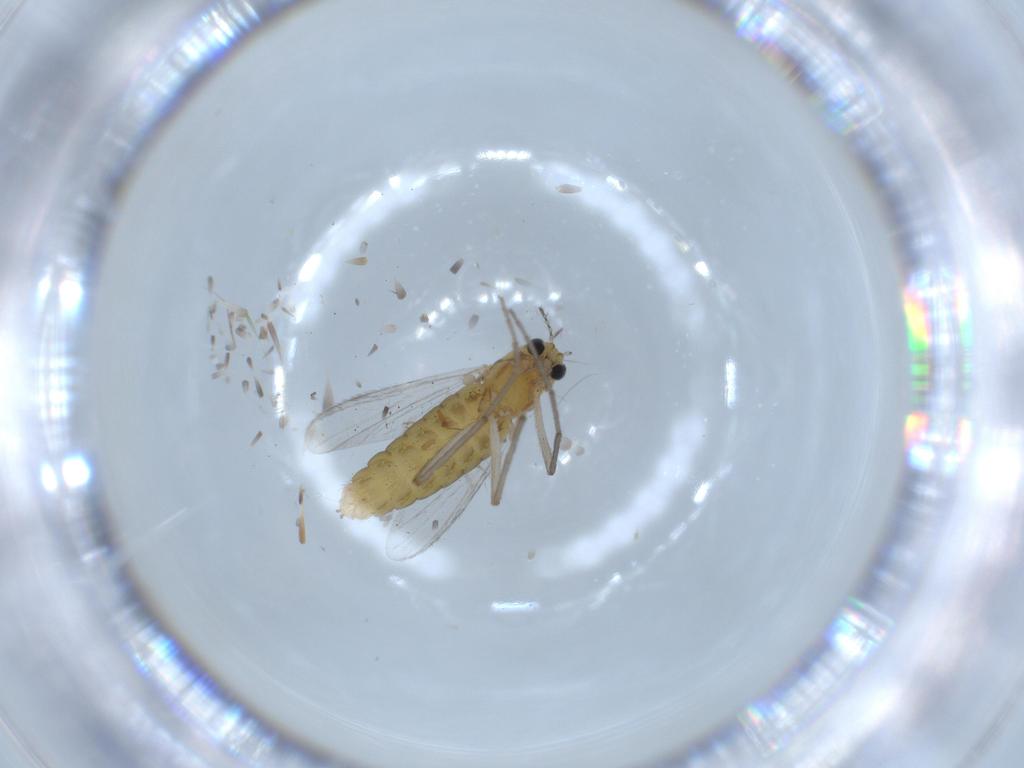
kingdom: Animalia
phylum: Arthropoda
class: Insecta
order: Diptera
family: Chironomidae
